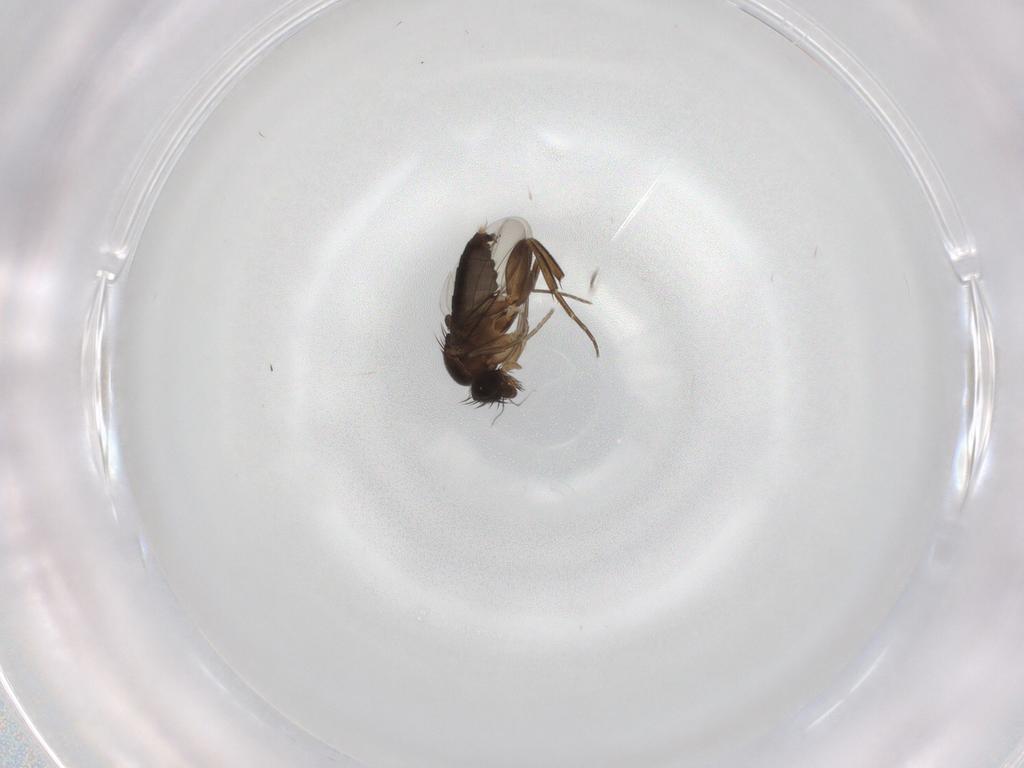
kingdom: Animalia
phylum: Arthropoda
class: Insecta
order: Diptera
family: Phoridae
